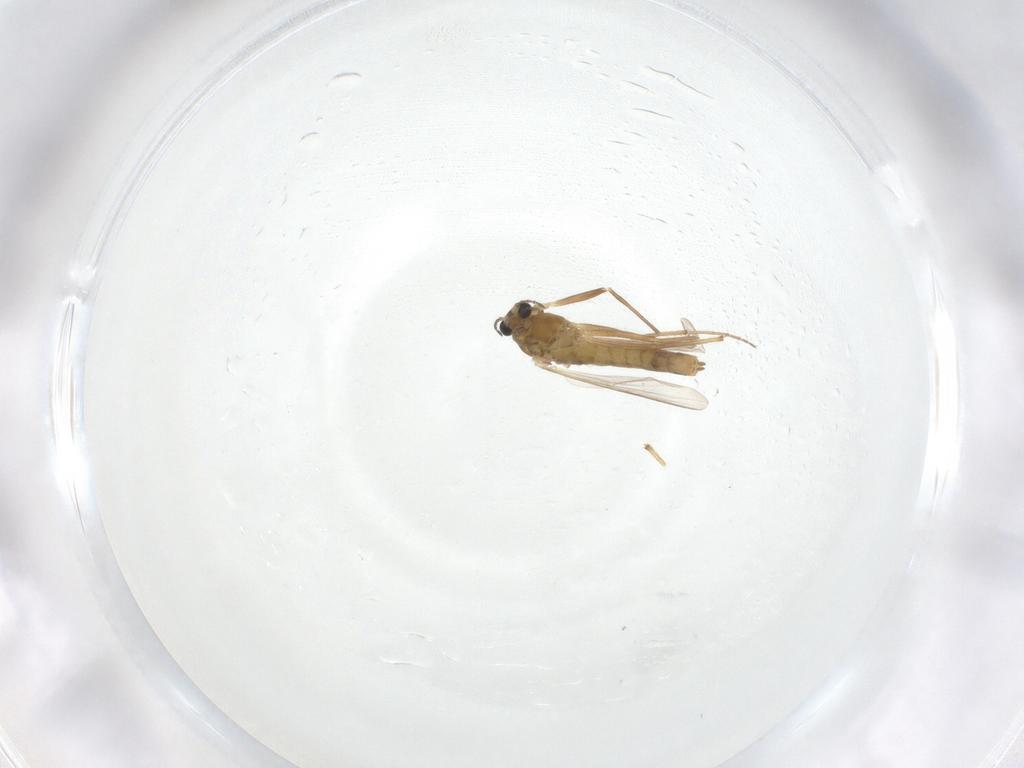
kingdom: Animalia
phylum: Arthropoda
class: Insecta
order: Diptera
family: Chironomidae
